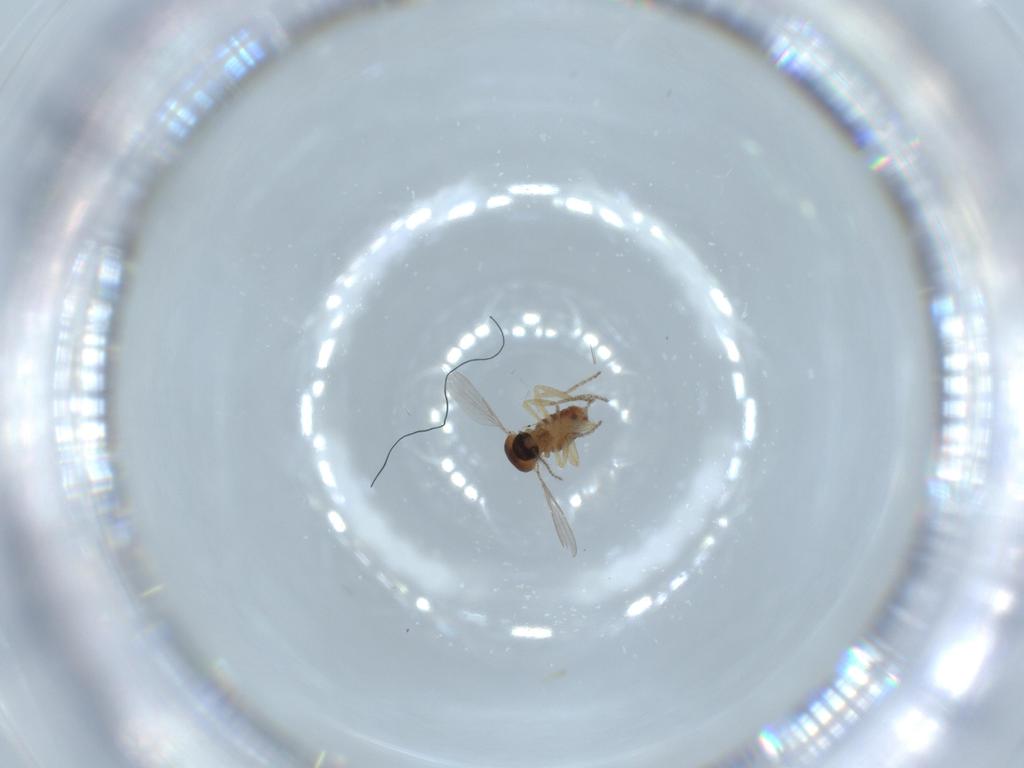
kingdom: Animalia
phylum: Arthropoda
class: Insecta
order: Diptera
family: Ceratopogonidae
